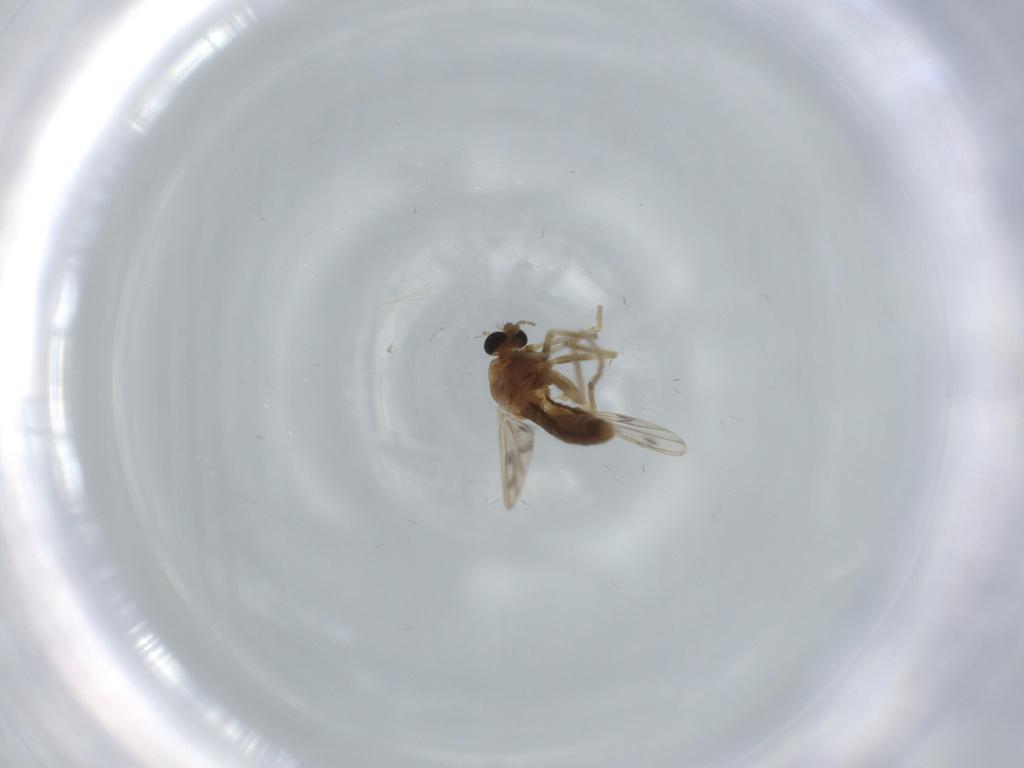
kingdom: Animalia
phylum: Arthropoda
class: Insecta
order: Diptera
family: Chironomidae
